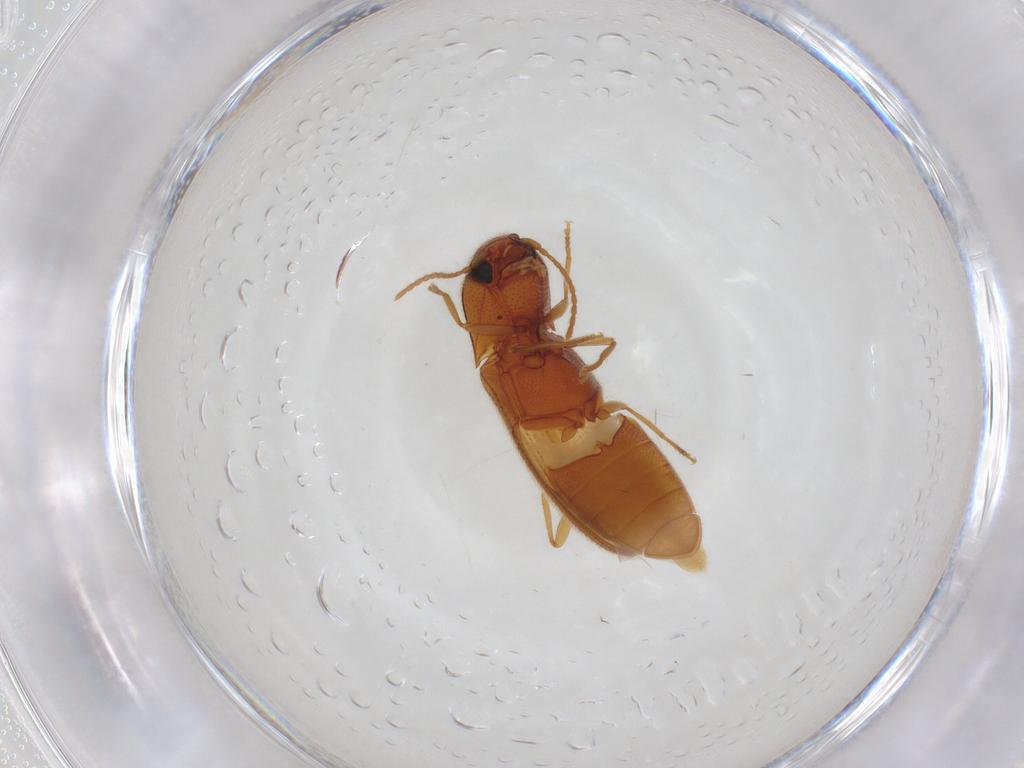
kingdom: Animalia
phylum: Arthropoda
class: Insecta
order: Coleoptera
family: Elateridae
